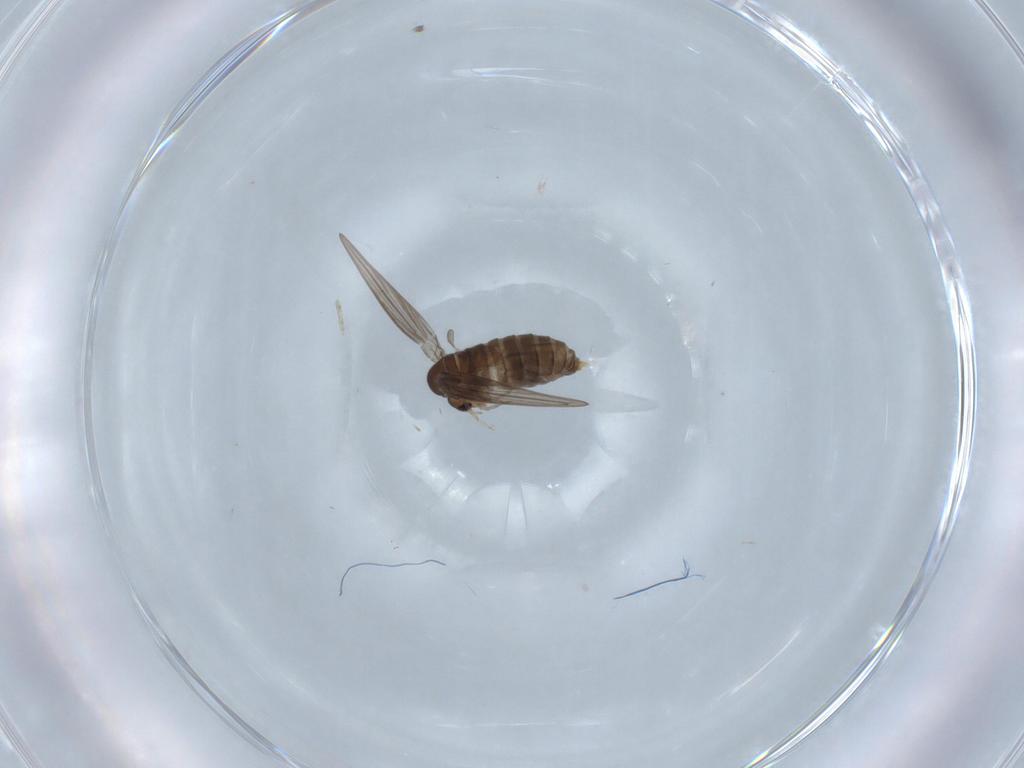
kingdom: Animalia
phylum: Arthropoda
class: Insecta
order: Diptera
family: Psychodidae
